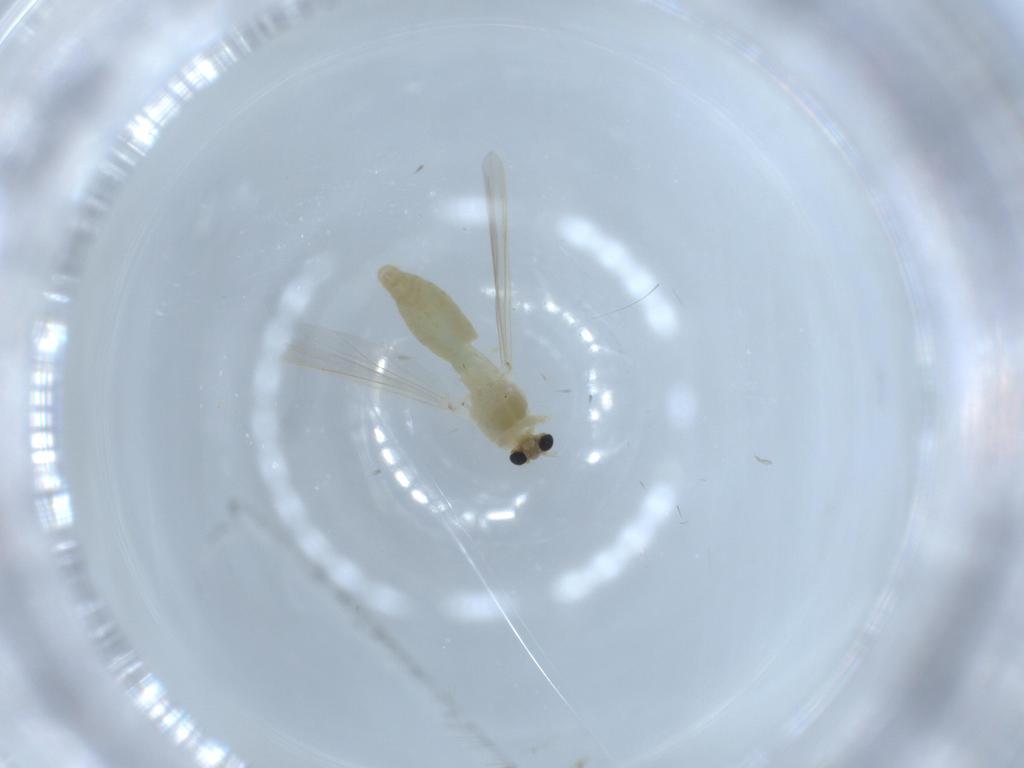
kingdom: Animalia
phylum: Arthropoda
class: Insecta
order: Diptera
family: Chironomidae
